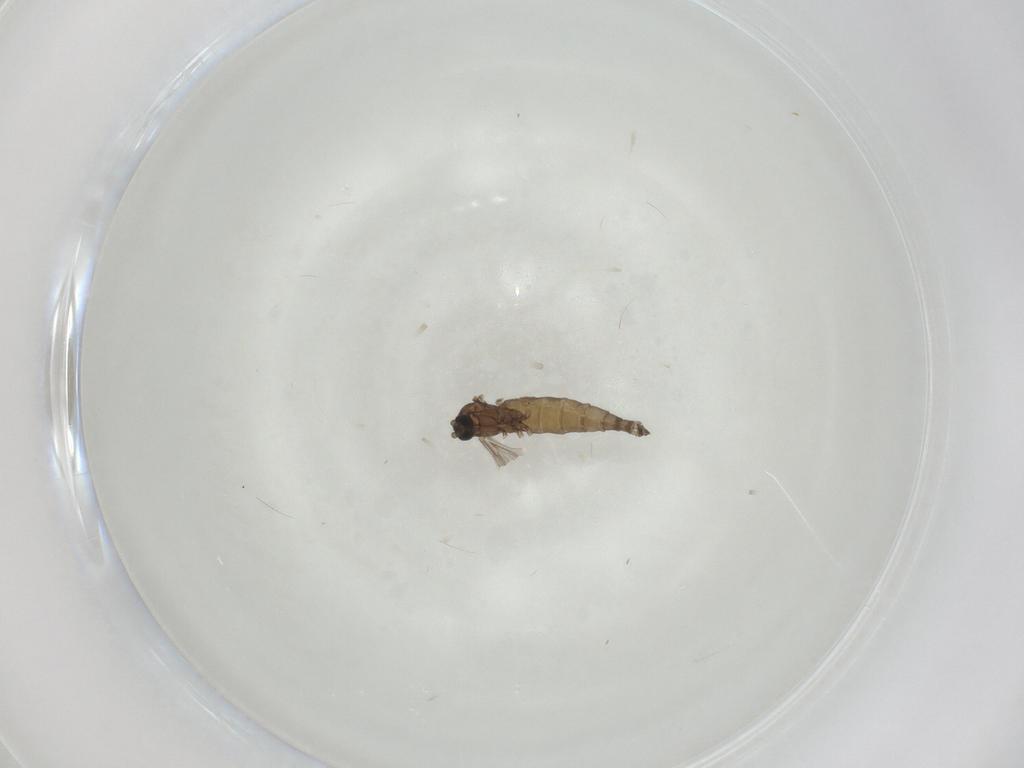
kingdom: Animalia
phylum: Arthropoda
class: Insecta
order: Diptera
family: Sciaridae
